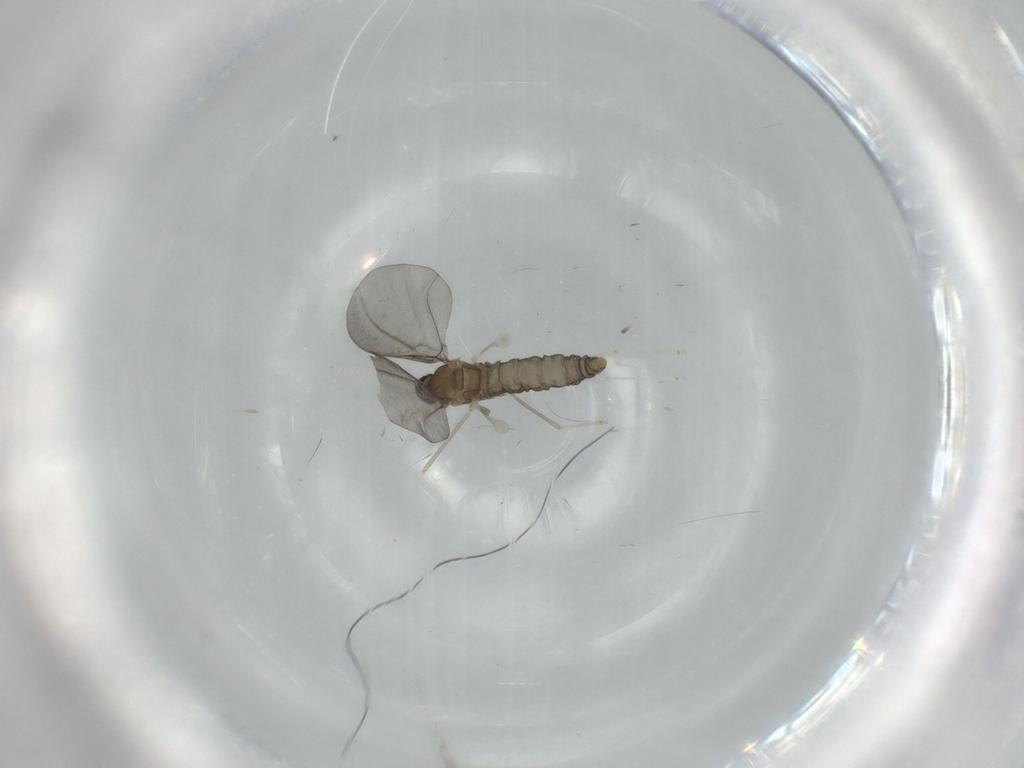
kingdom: Animalia
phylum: Arthropoda
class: Insecta
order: Diptera
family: Cecidomyiidae
